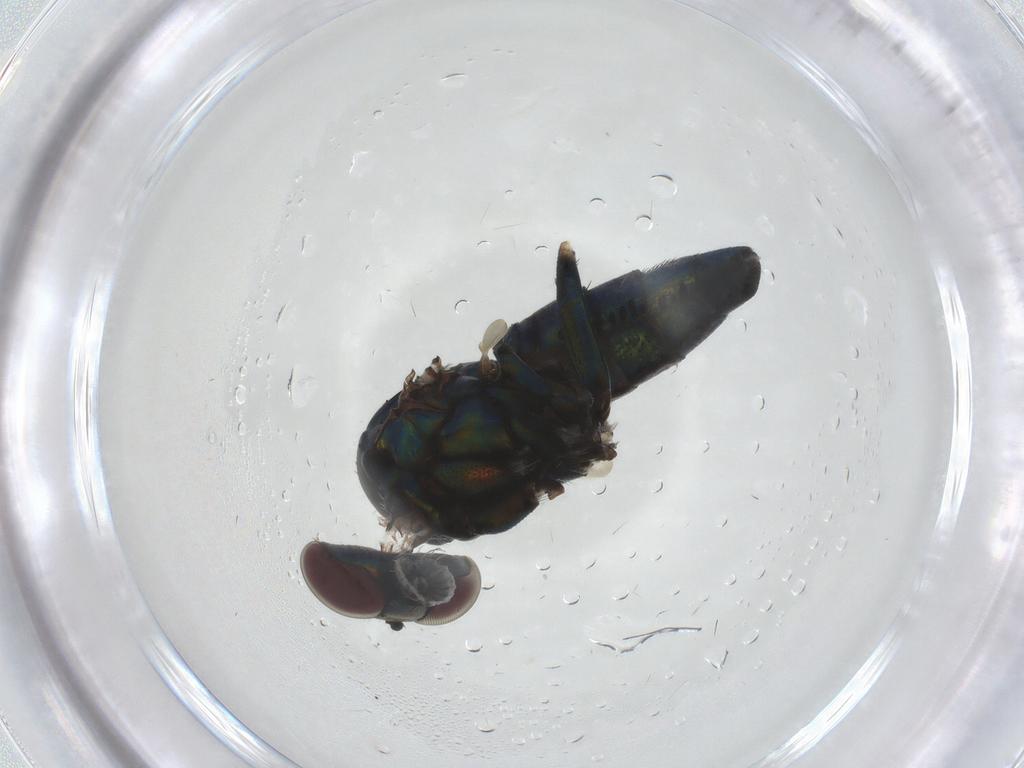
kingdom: Animalia
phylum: Arthropoda
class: Insecta
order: Diptera
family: Dolichopodidae
